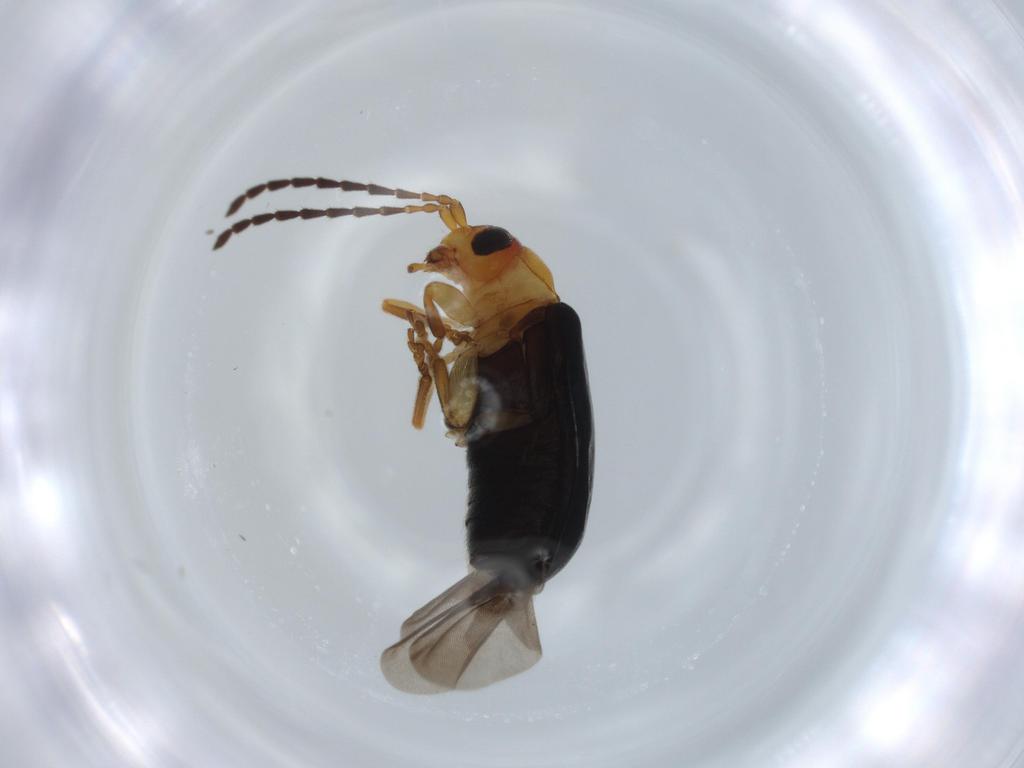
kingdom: Animalia
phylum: Arthropoda
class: Insecta
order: Coleoptera
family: Chrysomelidae
